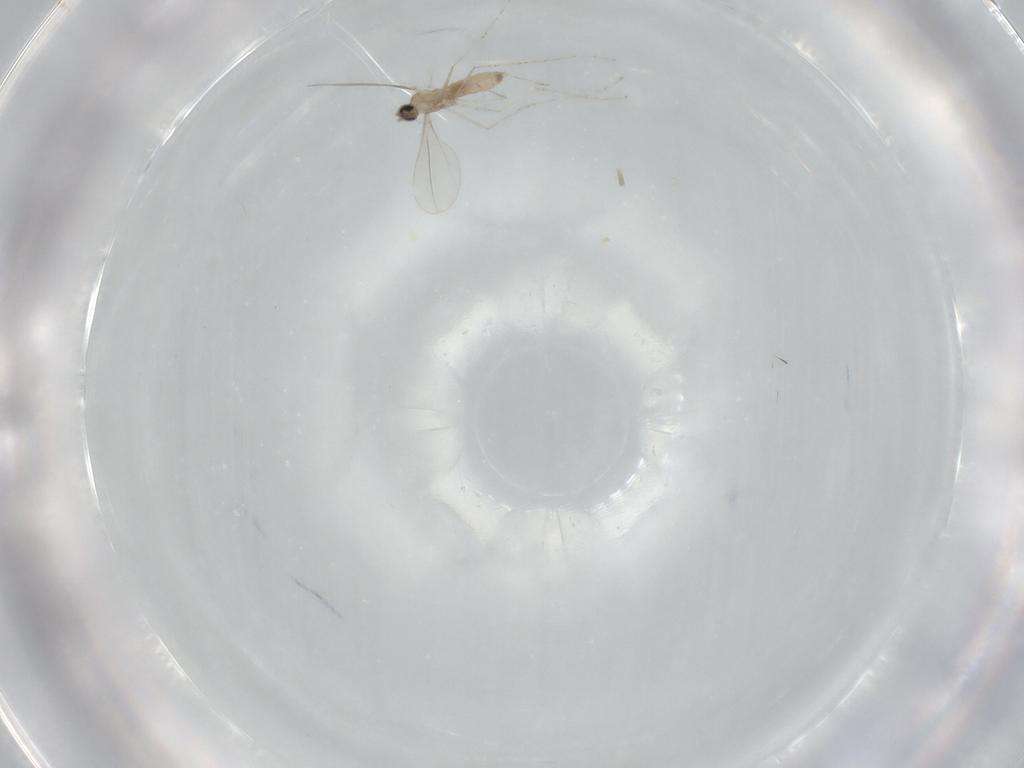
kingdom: Animalia
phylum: Arthropoda
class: Insecta
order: Diptera
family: Cecidomyiidae
